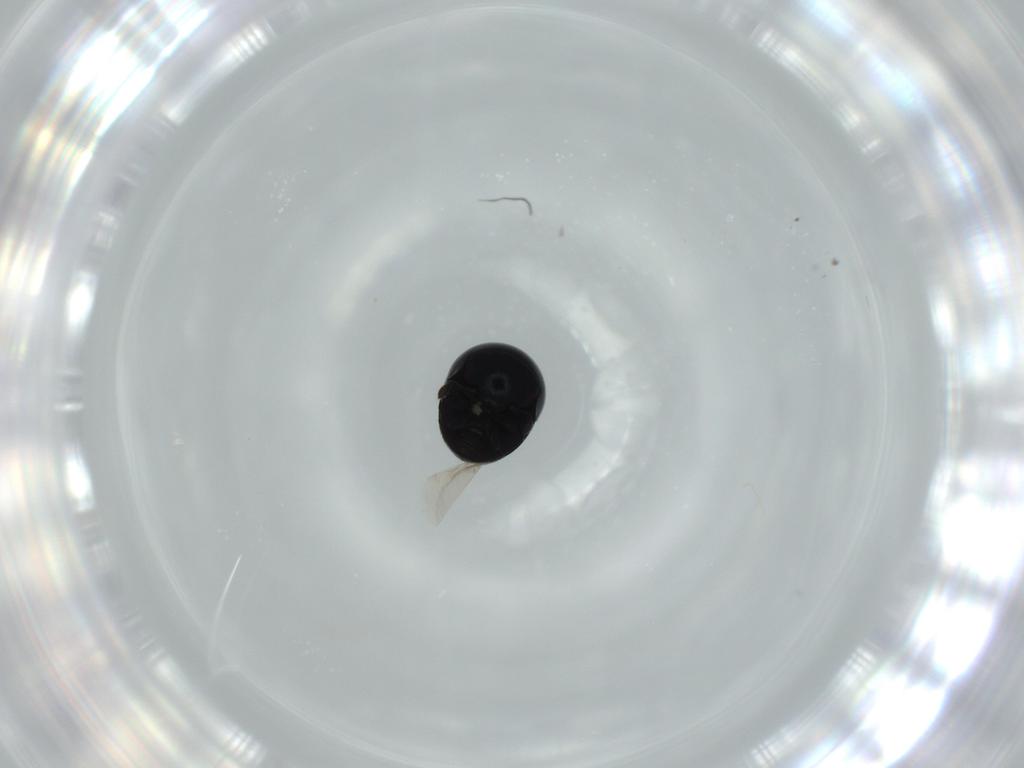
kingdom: Animalia
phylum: Arthropoda
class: Insecta
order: Coleoptera
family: Cybocephalidae
